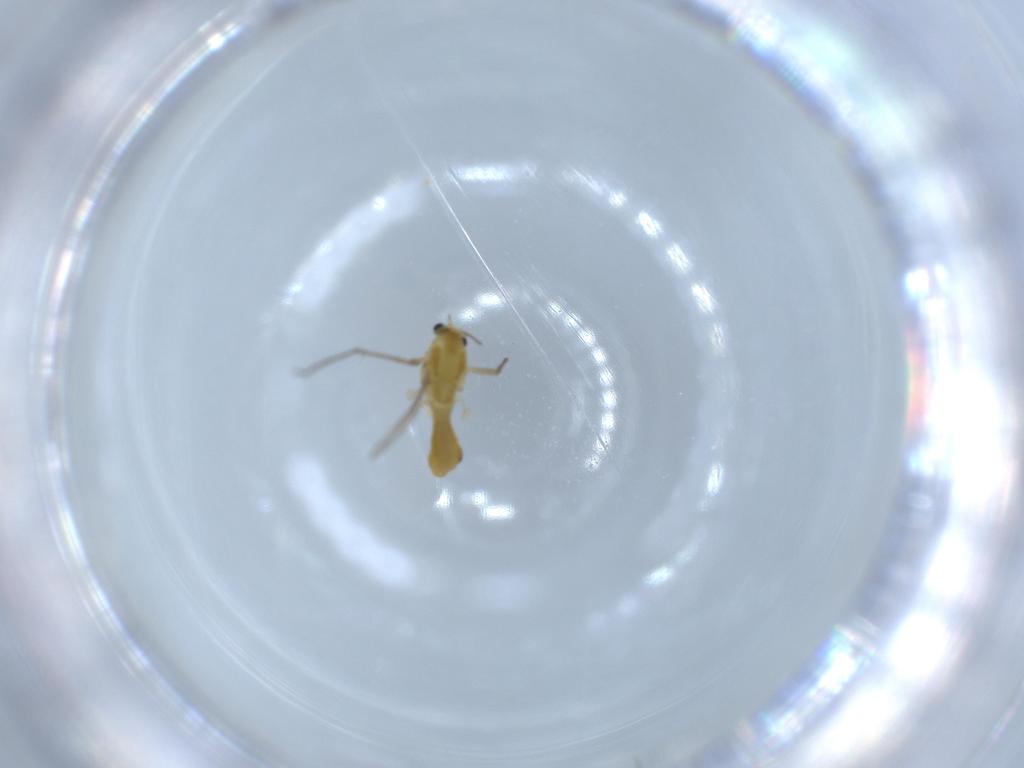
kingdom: Animalia
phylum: Arthropoda
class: Insecta
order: Diptera
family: Chironomidae
